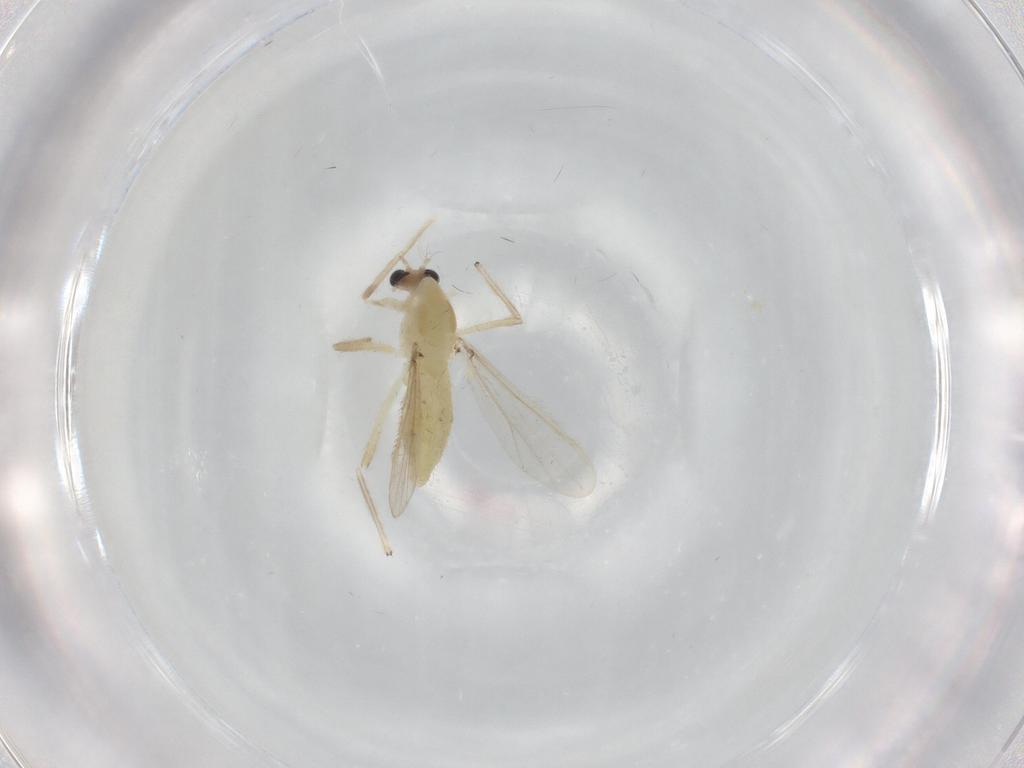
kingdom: Animalia
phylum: Arthropoda
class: Insecta
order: Diptera
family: Chironomidae
